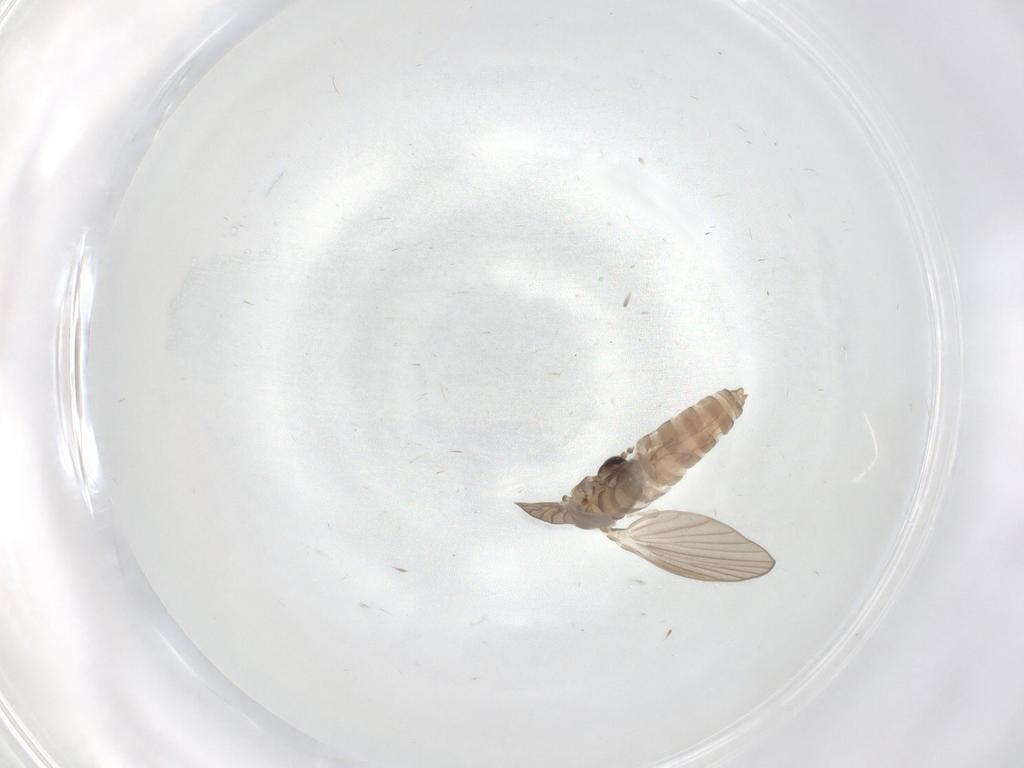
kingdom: Animalia
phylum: Arthropoda
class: Insecta
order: Diptera
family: Psychodidae
